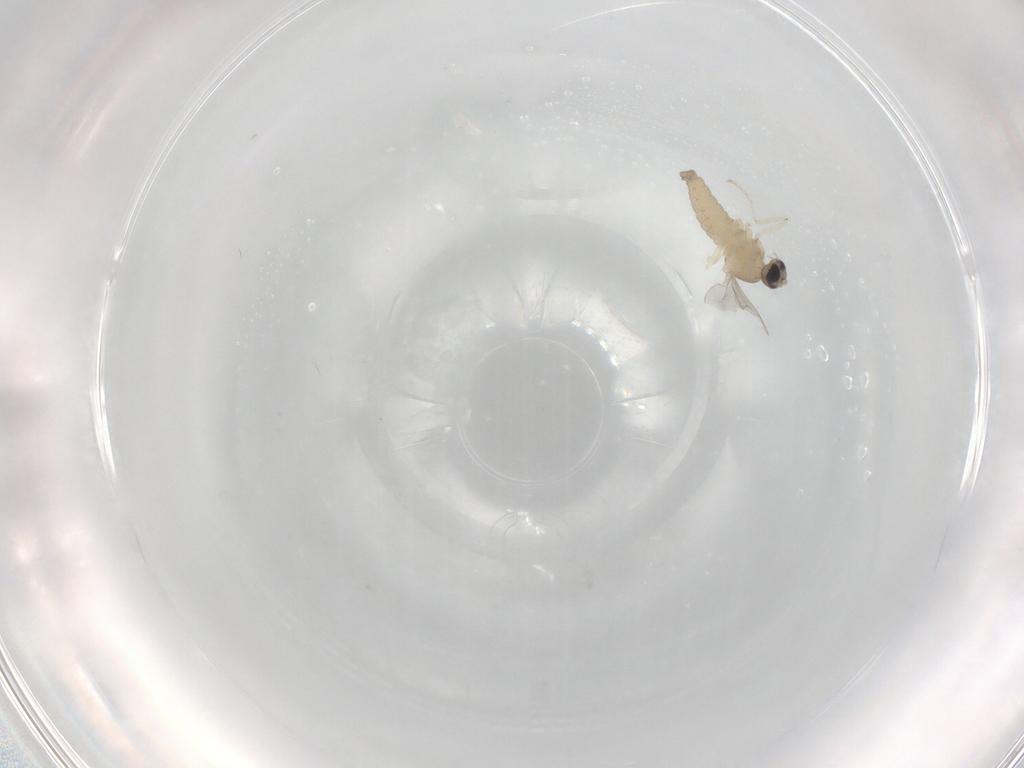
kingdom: Animalia
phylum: Arthropoda
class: Insecta
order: Diptera
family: Cecidomyiidae
